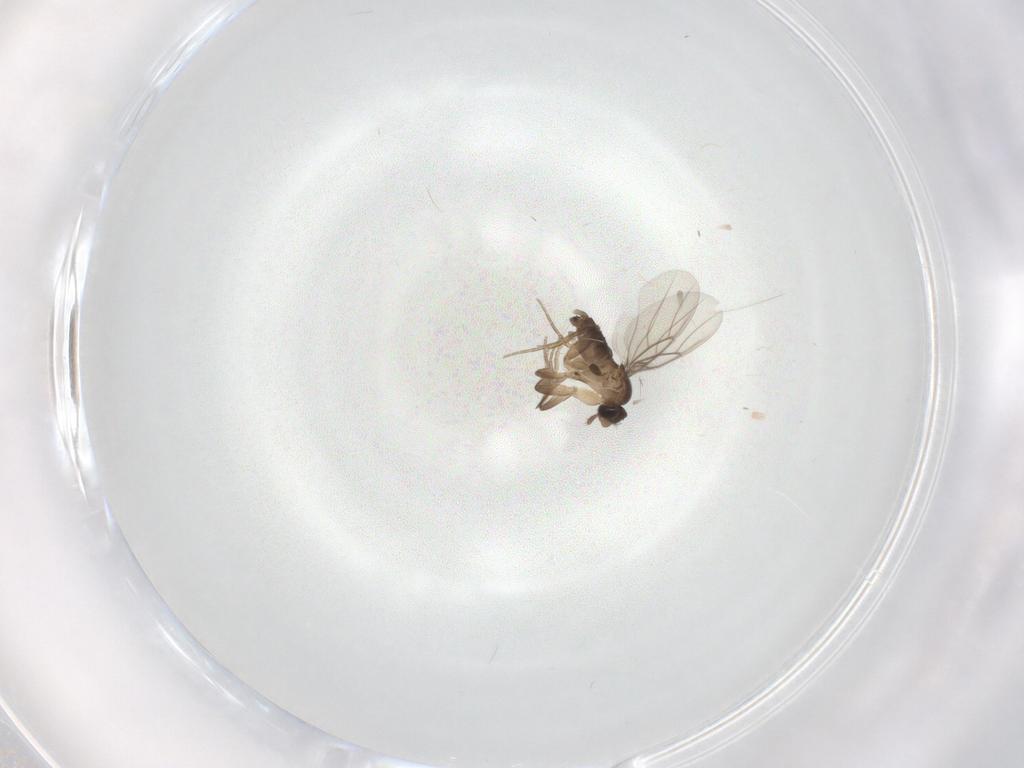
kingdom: Animalia
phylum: Arthropoda
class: Insecta
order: Diptera
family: Phoridae
